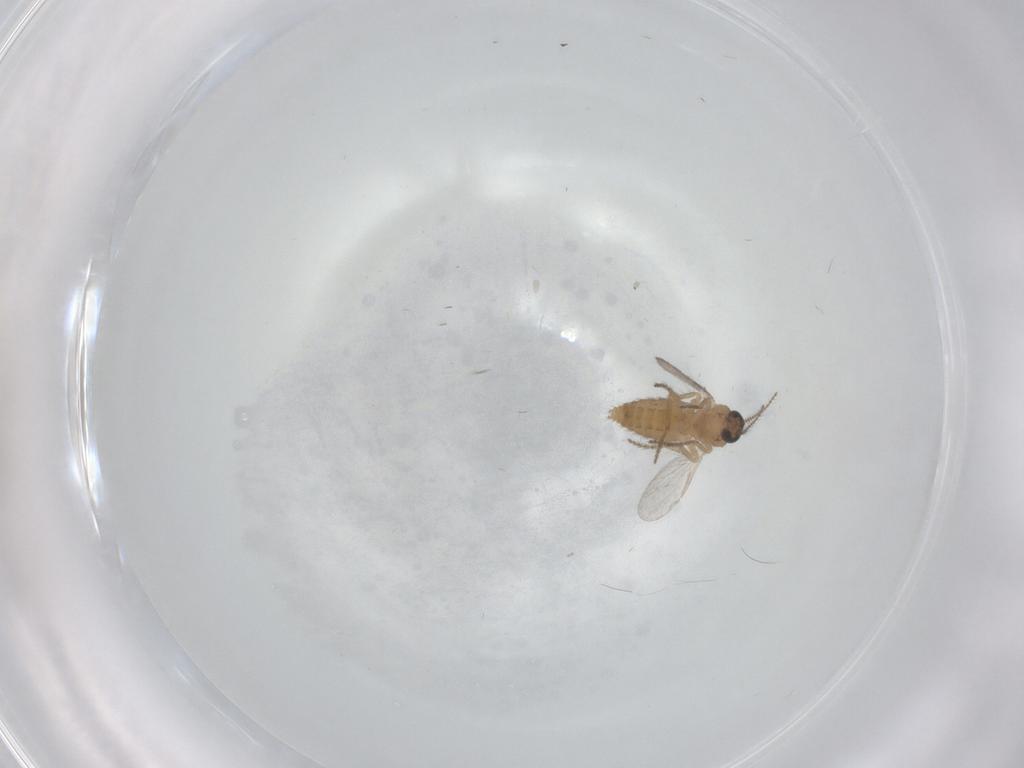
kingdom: Animalia
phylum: Arthropoda
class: Insecta
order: Diptera
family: Ceratopogonidae
